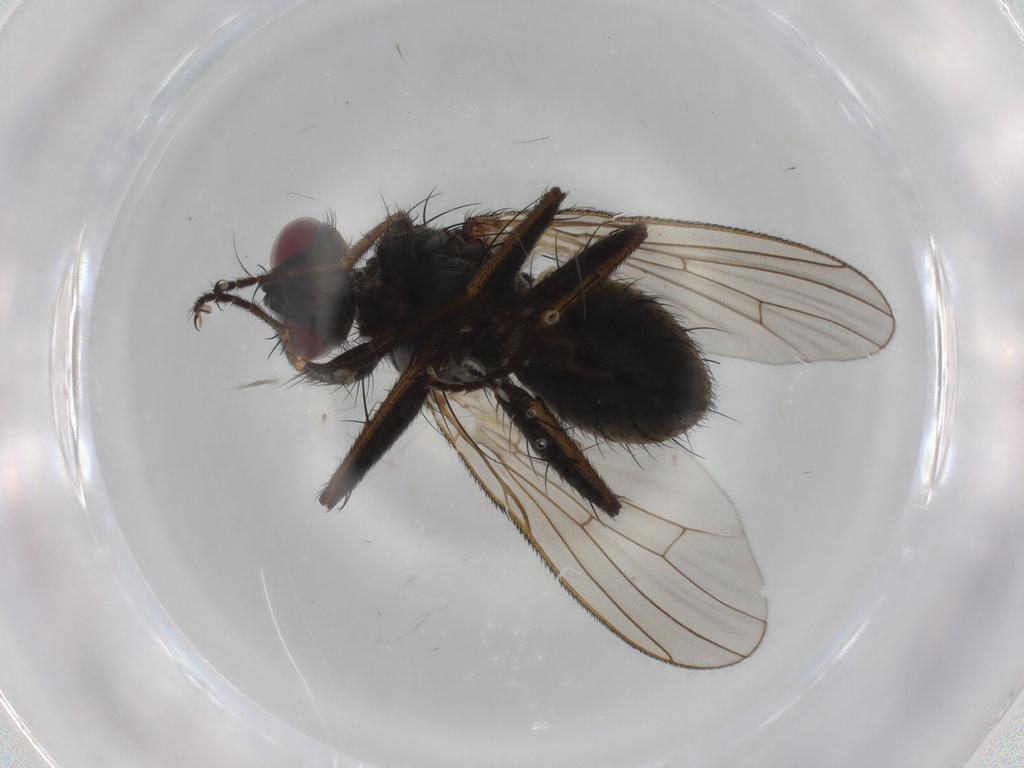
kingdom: Animalia
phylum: Arthropoda
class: Insecta
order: Diptera
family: Muscidae
